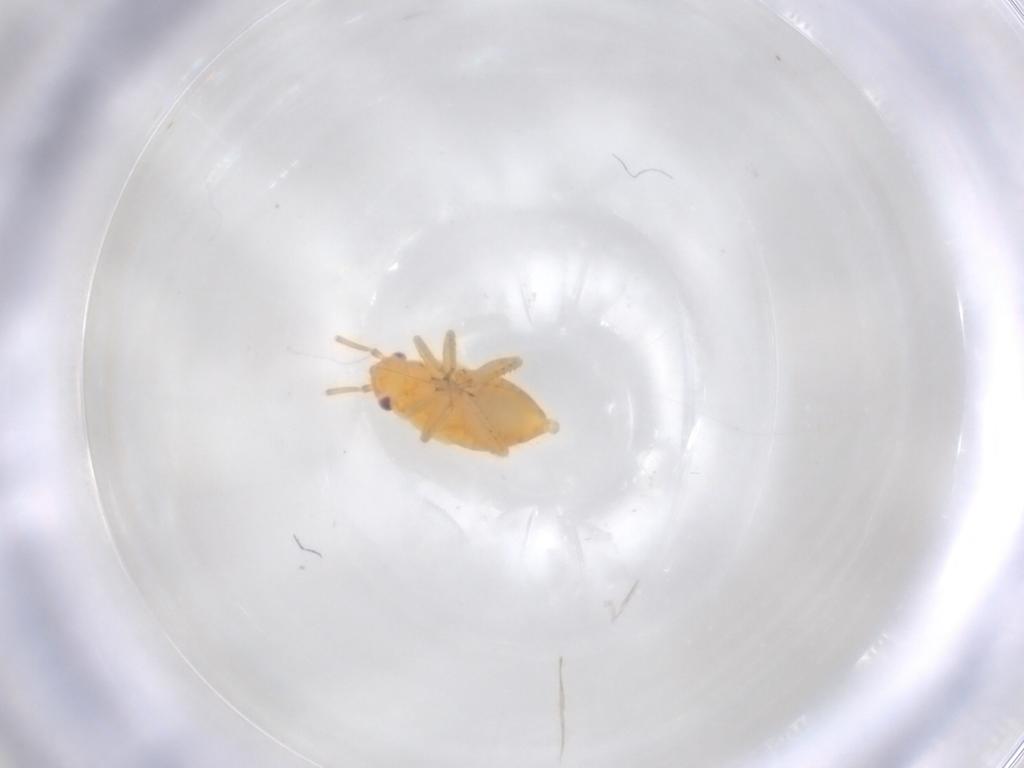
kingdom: Animalia
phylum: Arthropoda
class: Insecta
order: Hemiptera
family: Miridae
